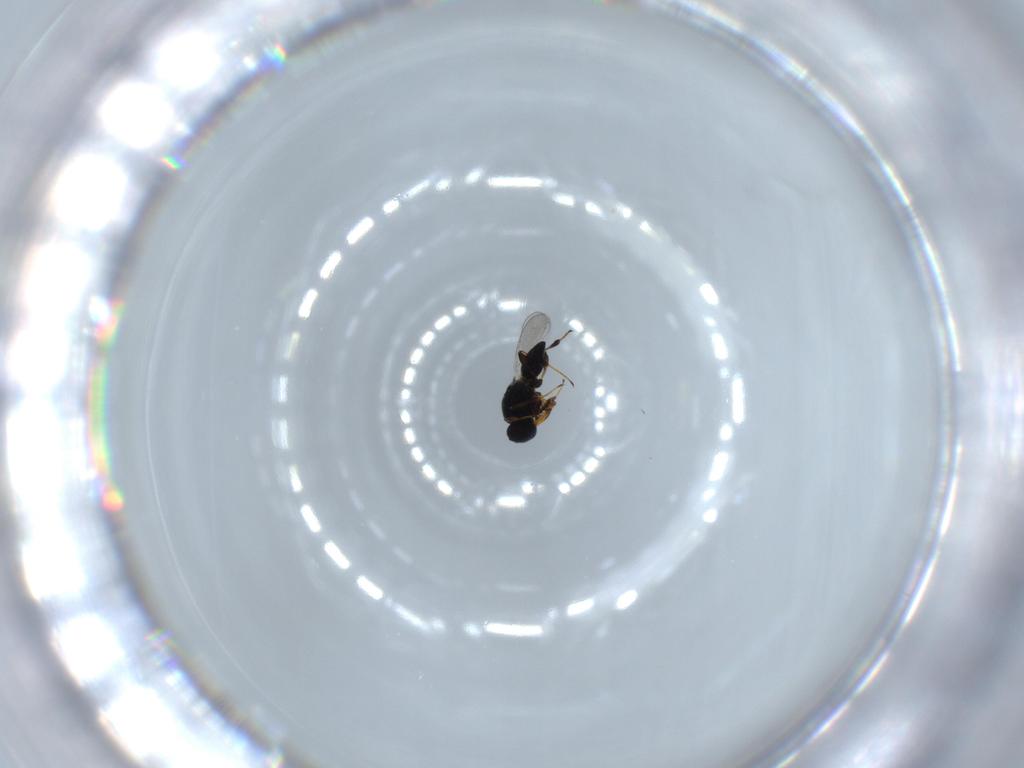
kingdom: Animalia
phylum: Arthropoda
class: Insecta
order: Hymenoptera
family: Platygastridae
